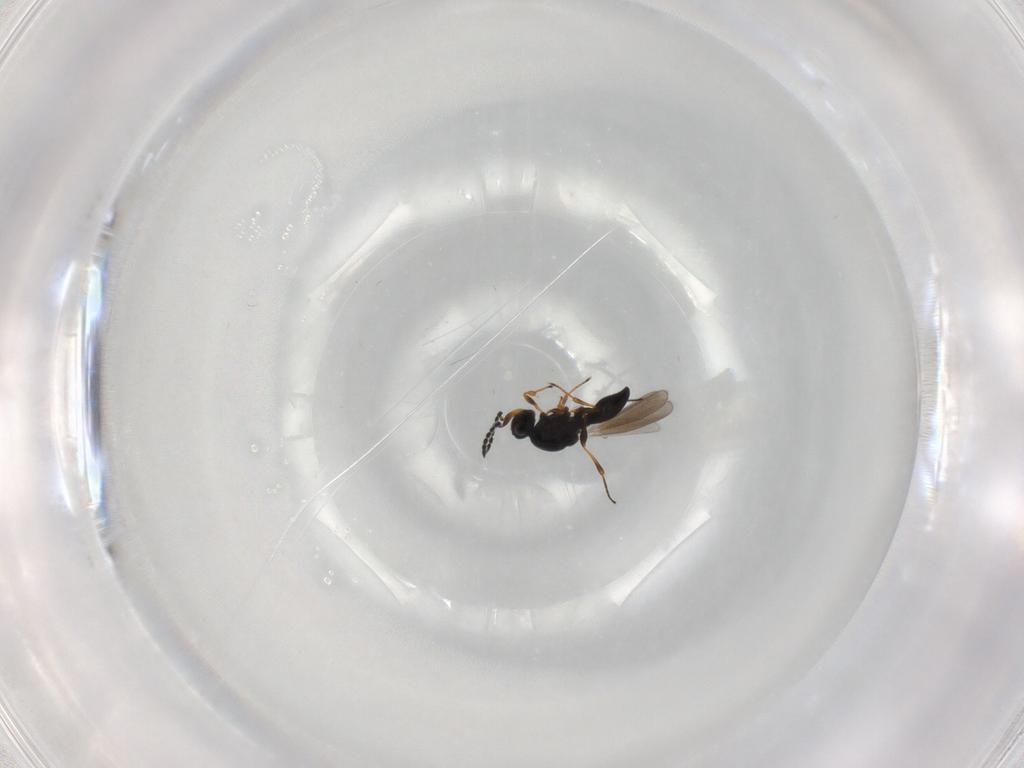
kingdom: Animalia
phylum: Arthropoda
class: Insecta
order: Hymenoptera
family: Platygastridae
